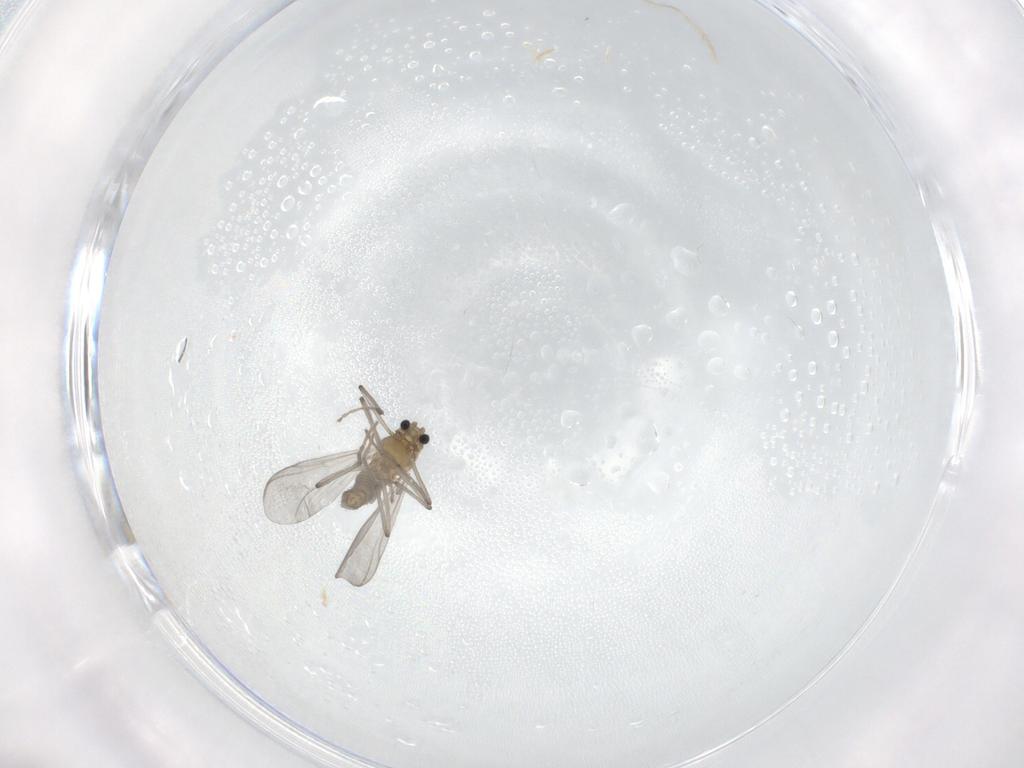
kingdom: Animalia
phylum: Arthropoda
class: Insecta
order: Diptera
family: Chironomidae
